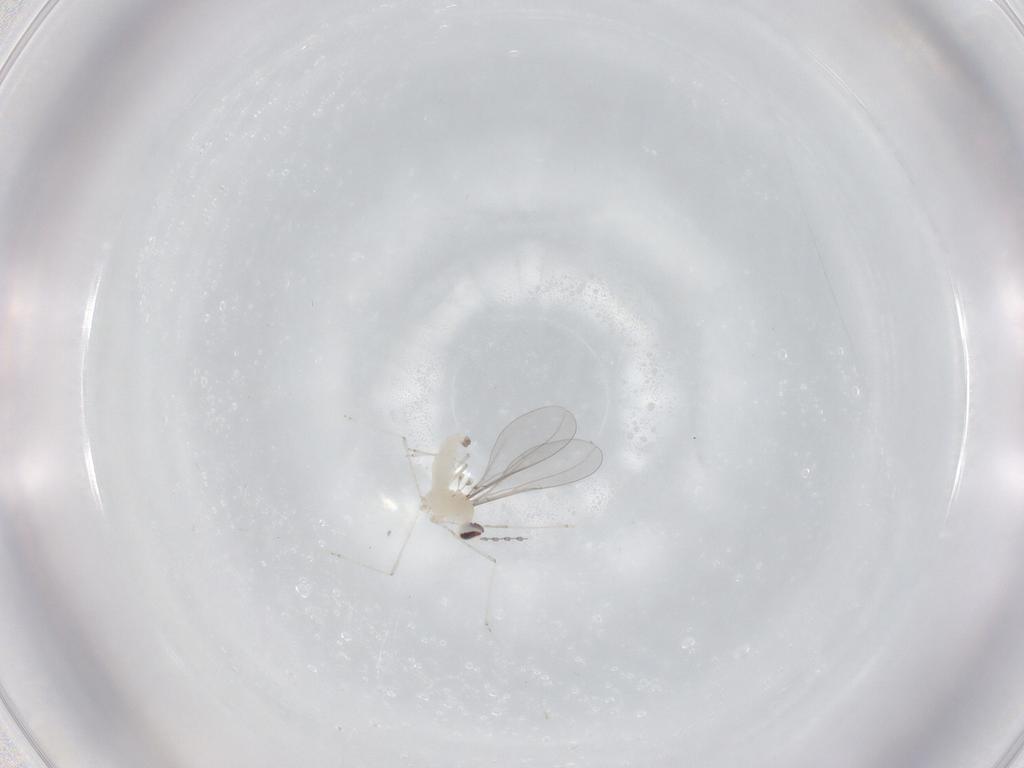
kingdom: Animalia
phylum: Arthropoda
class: Insecta
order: Diptera
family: Cecidomyiidae
